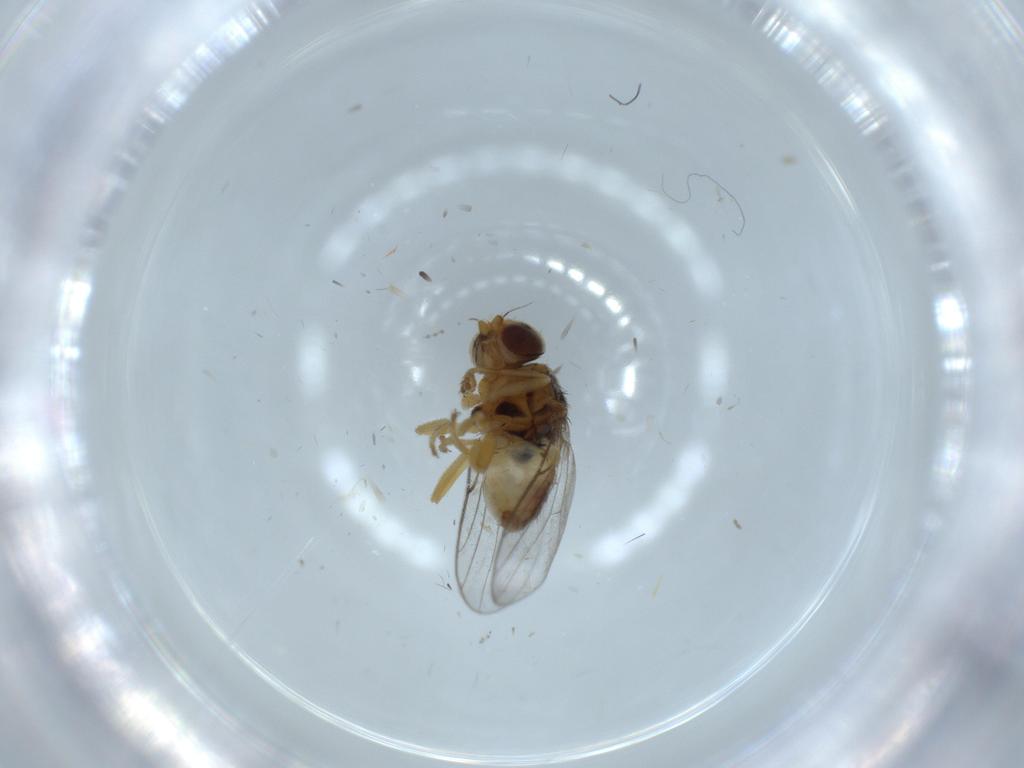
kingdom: Animalia
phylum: Arthropoda
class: Insecta
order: Diptera
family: Chloropidae
